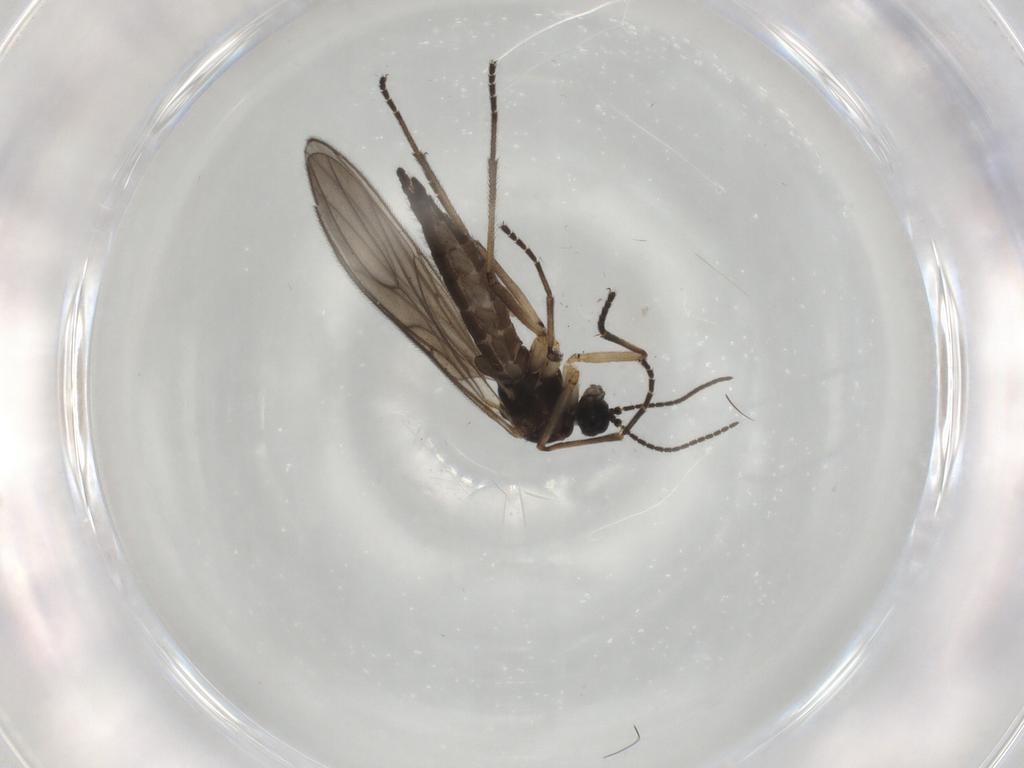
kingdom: Animalia
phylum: Arthropoda
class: Insecta
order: Diptera
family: Sciaridae
